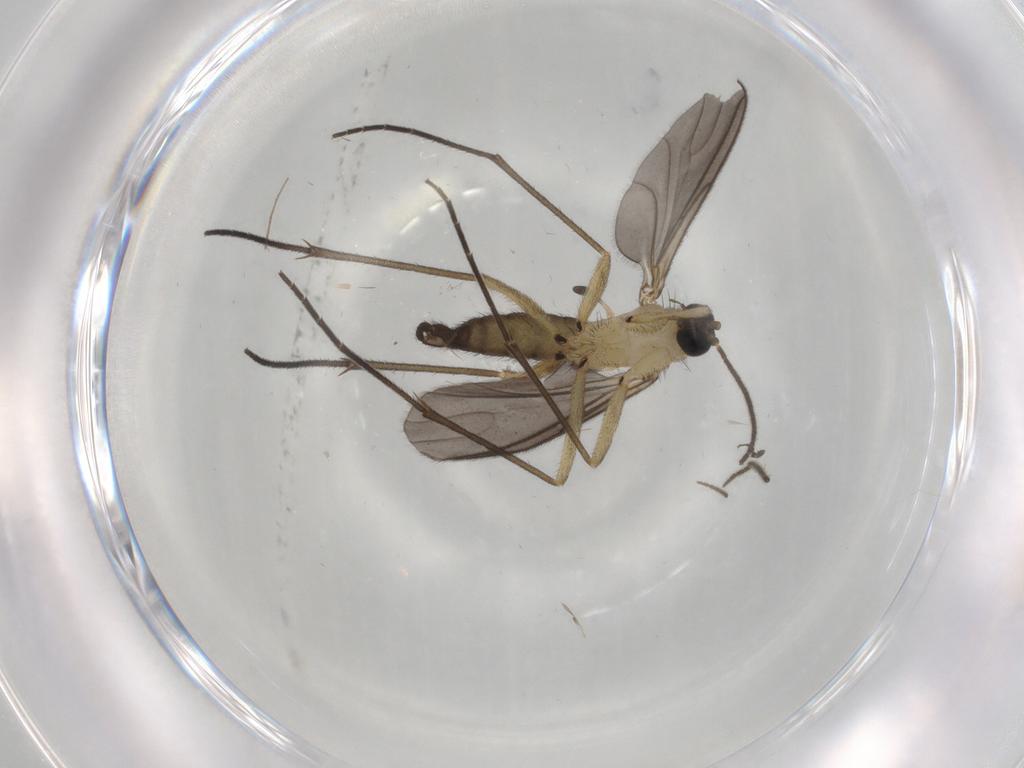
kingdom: Animalia
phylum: Arthropoda
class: Insecta
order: Diptera
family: Sciaridae
